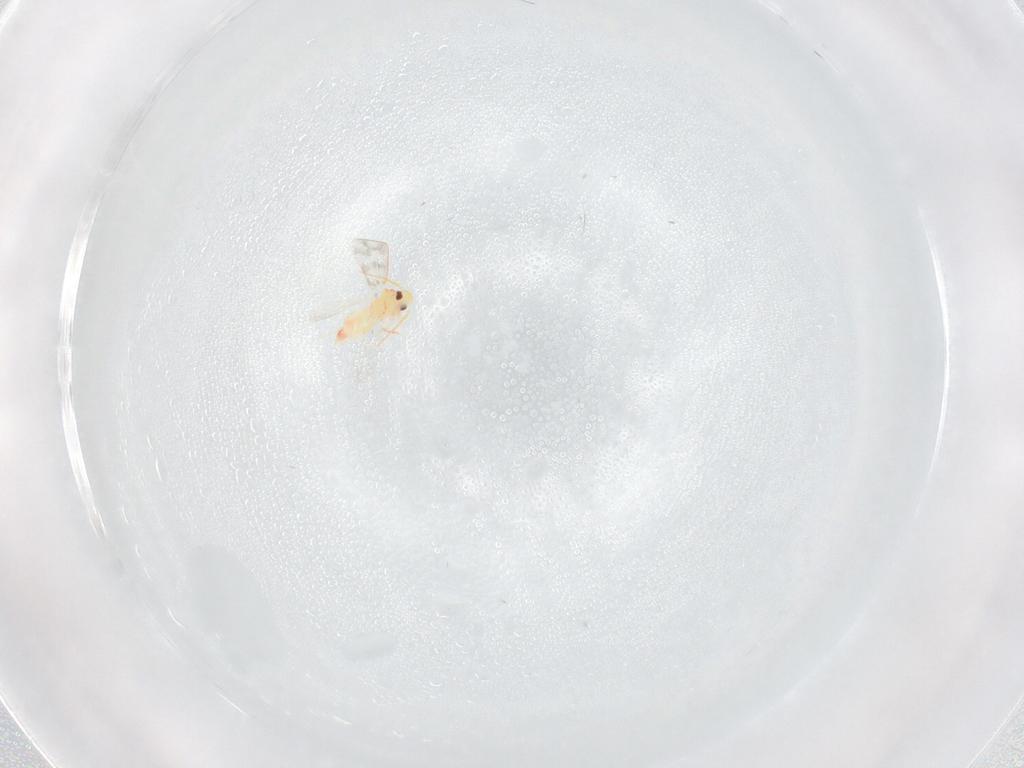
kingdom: Animalia
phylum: Arthropoda
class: Insecta
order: Hemiptera
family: Aleyrodidae
